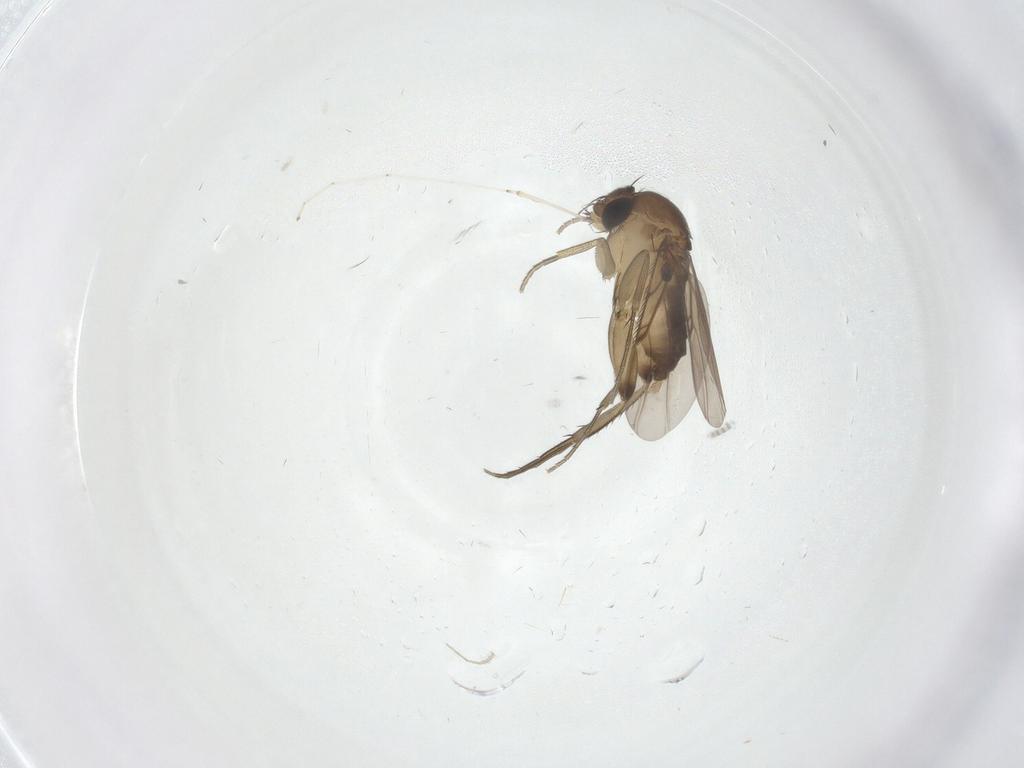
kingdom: Animalia
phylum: Arthropoda
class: Insecta
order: Diptera
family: Cecidomyiidae
